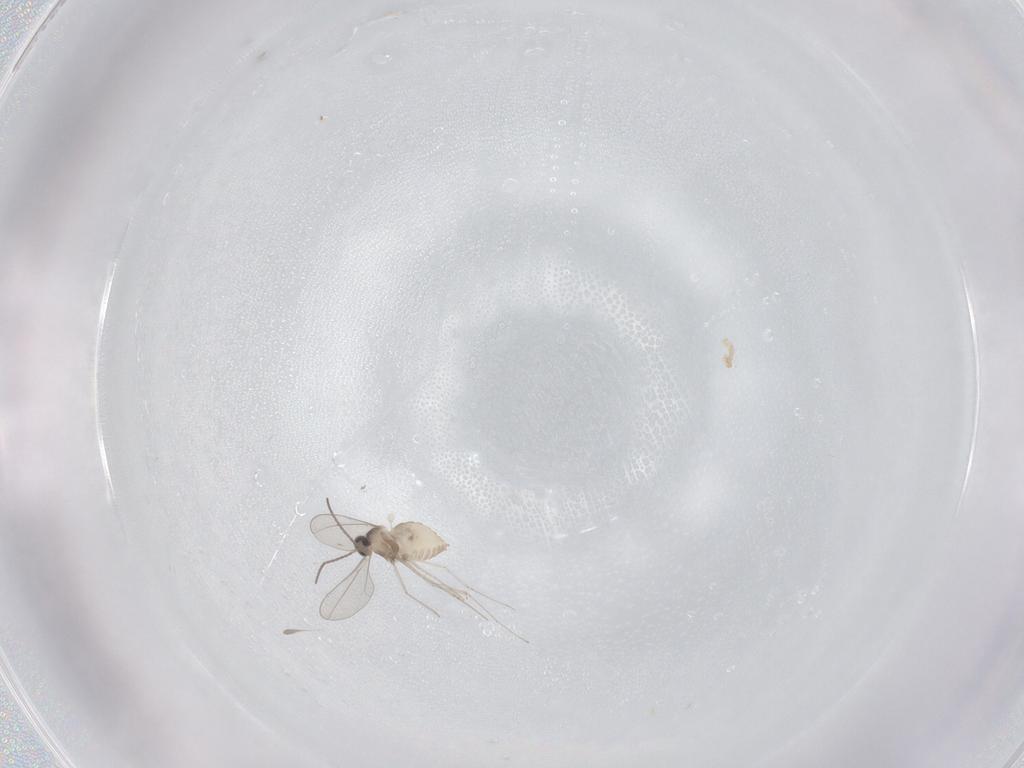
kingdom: Animalia
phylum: Arthropoda
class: Insecta
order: Diptera
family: Cecidomyiidae
